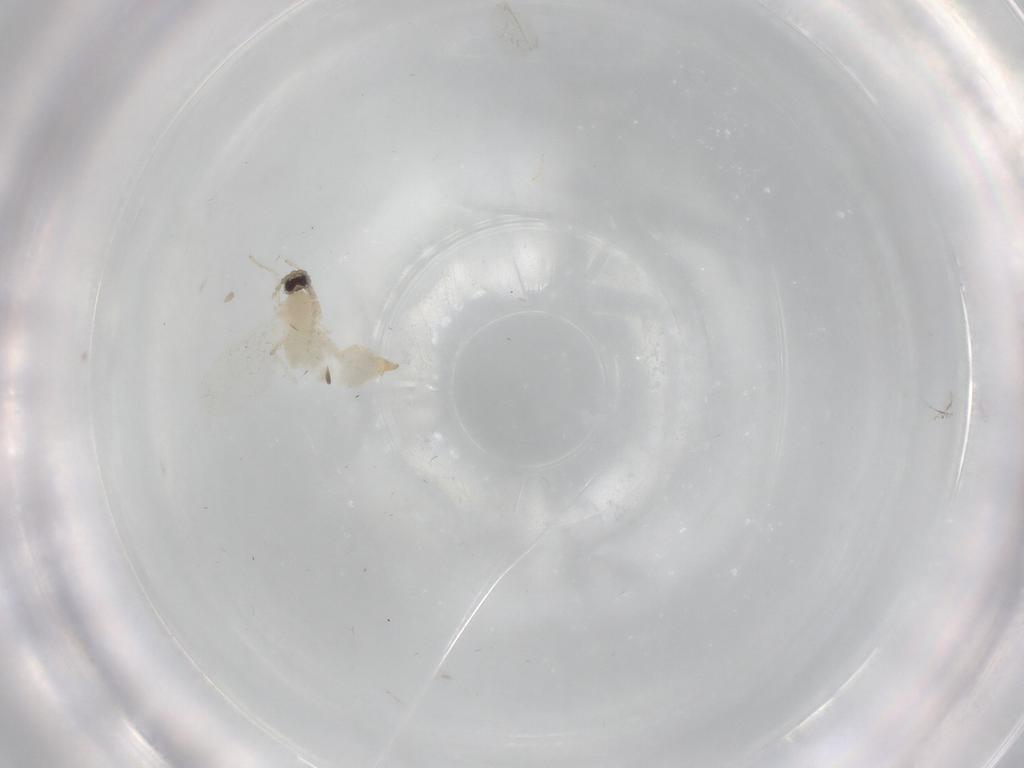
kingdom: Animalia
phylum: Arthropoda
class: Insecta
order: Diptera
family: Cecidomyiidae
